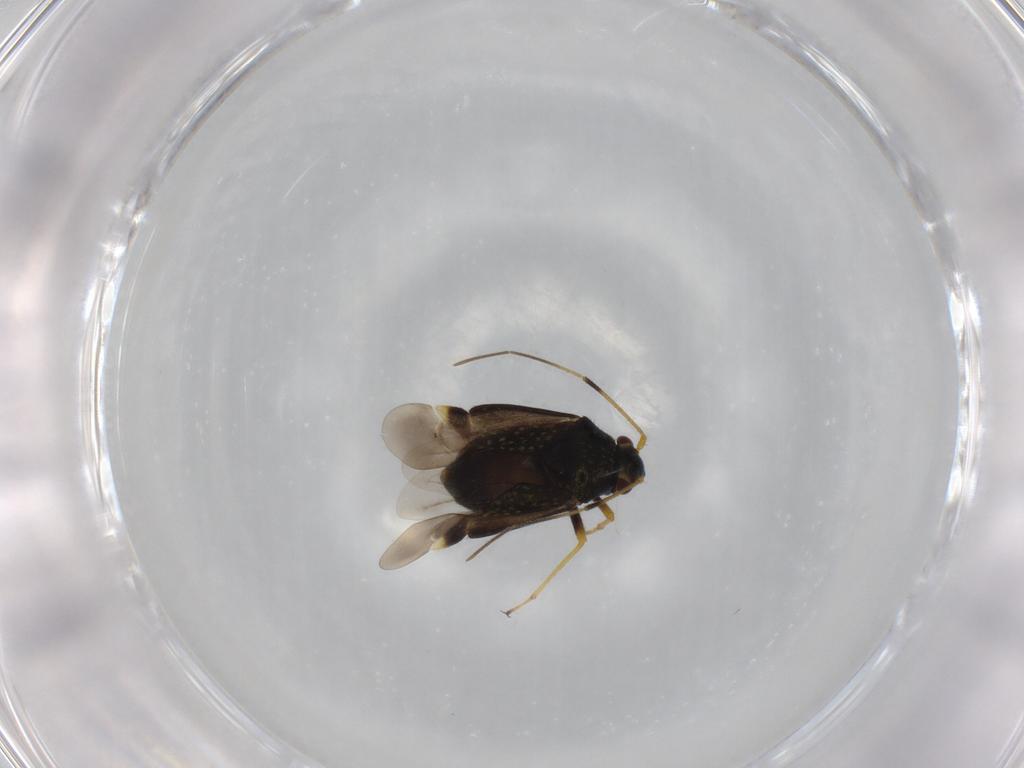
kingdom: Animalia
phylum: Arthropoda
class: Insecta
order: Hemiptera
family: Miridae
